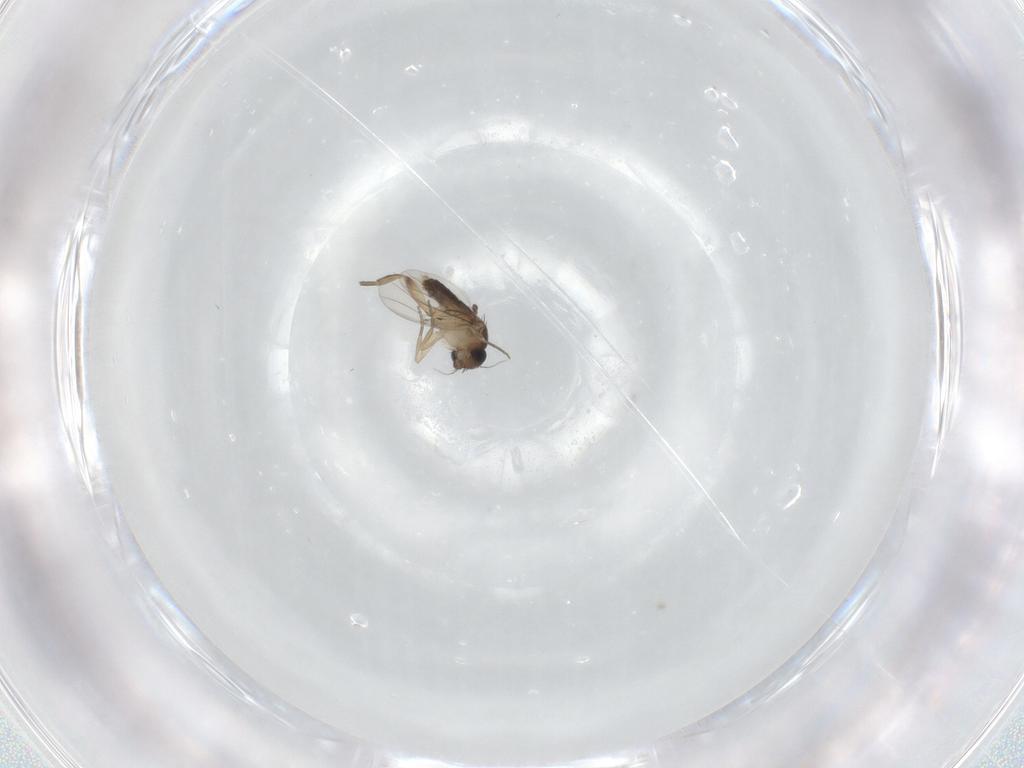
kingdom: Animalia
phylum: Arthropoda
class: Insecta
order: Diptera
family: Phoridae
